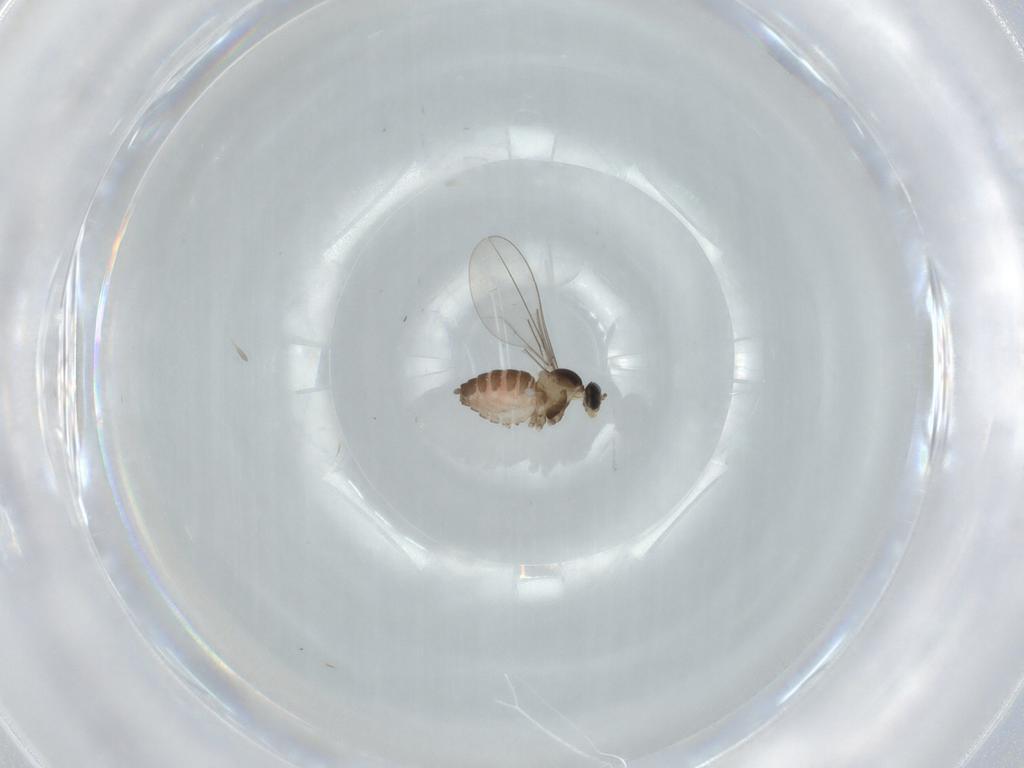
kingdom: Animalia
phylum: Arthropoda
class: Insecta
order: Diptera
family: Cecidomyiidae
